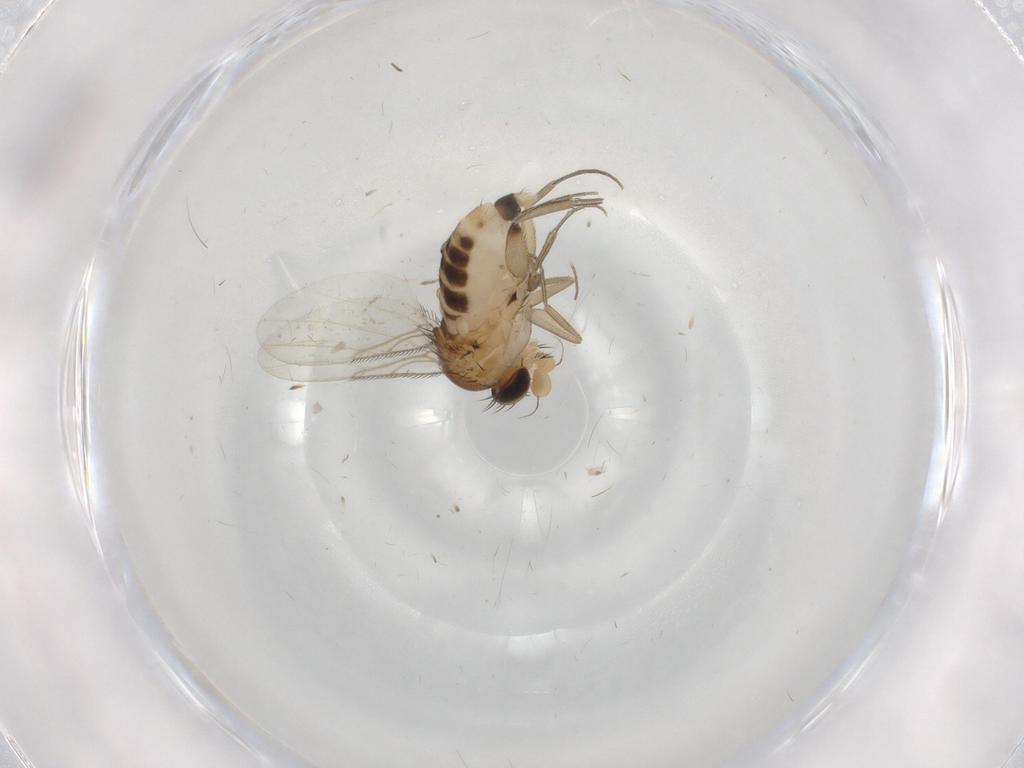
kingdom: Animalia
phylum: Arthropoda
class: Insecta
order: Diptera
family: Phoridae
